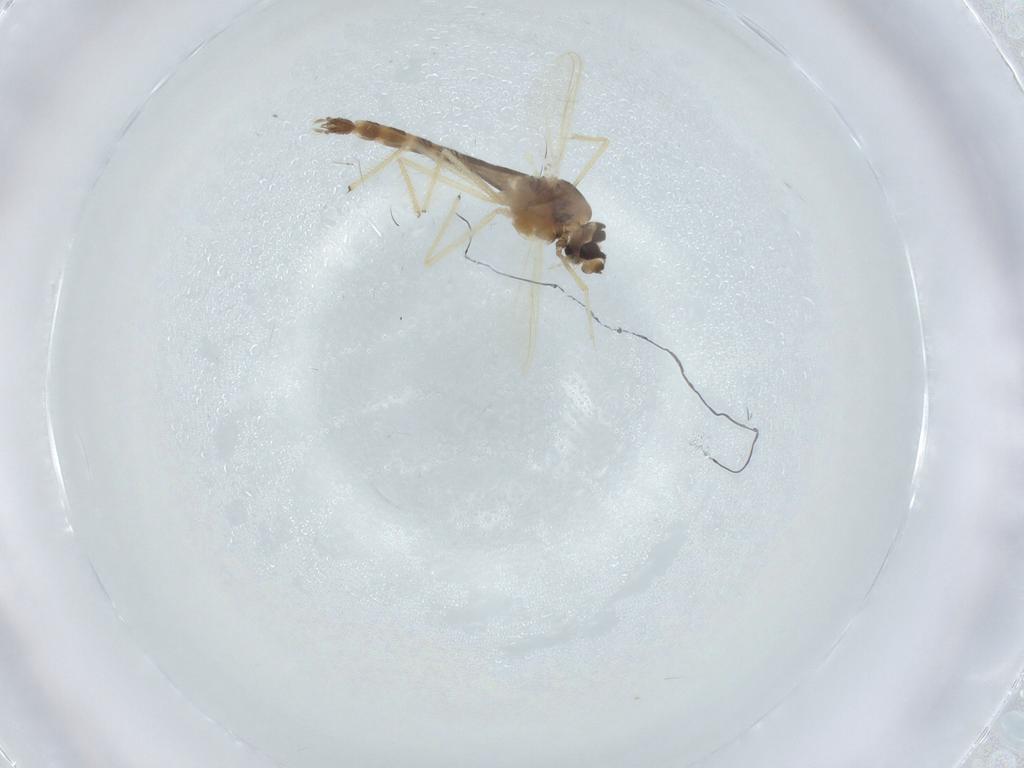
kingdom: Animalia
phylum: Arthropoda
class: Insecta
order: Diptera
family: Chironomidae
